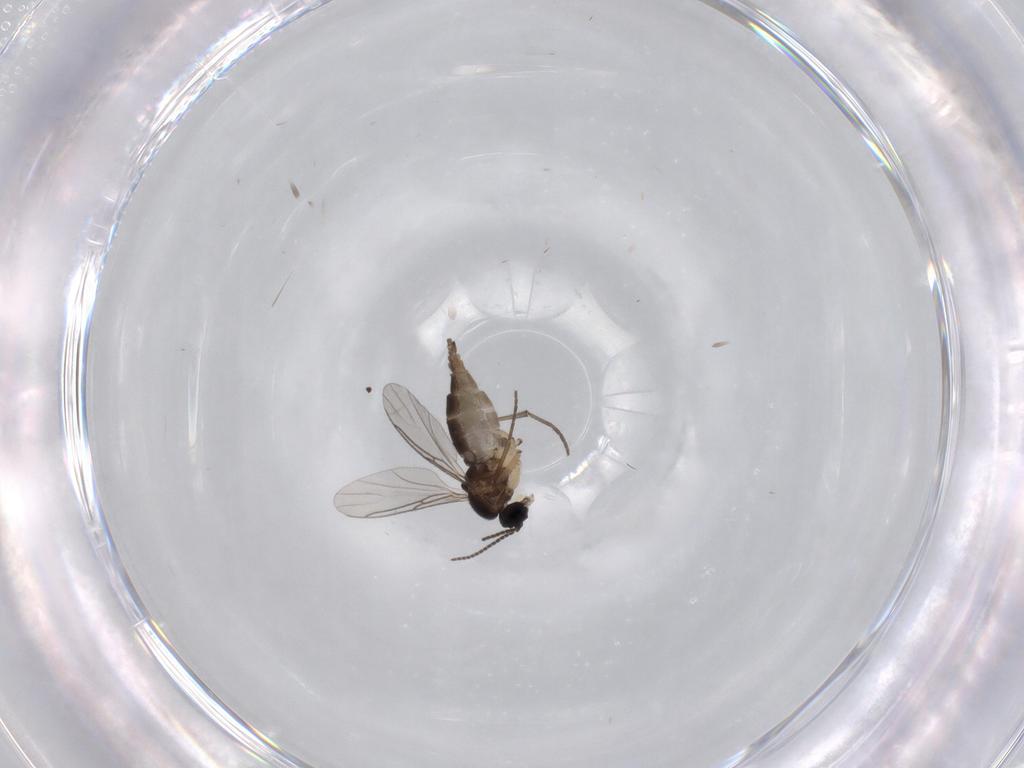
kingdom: Animalia
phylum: Arthropoda
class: Insecta
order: Diptera
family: Sciaridae
